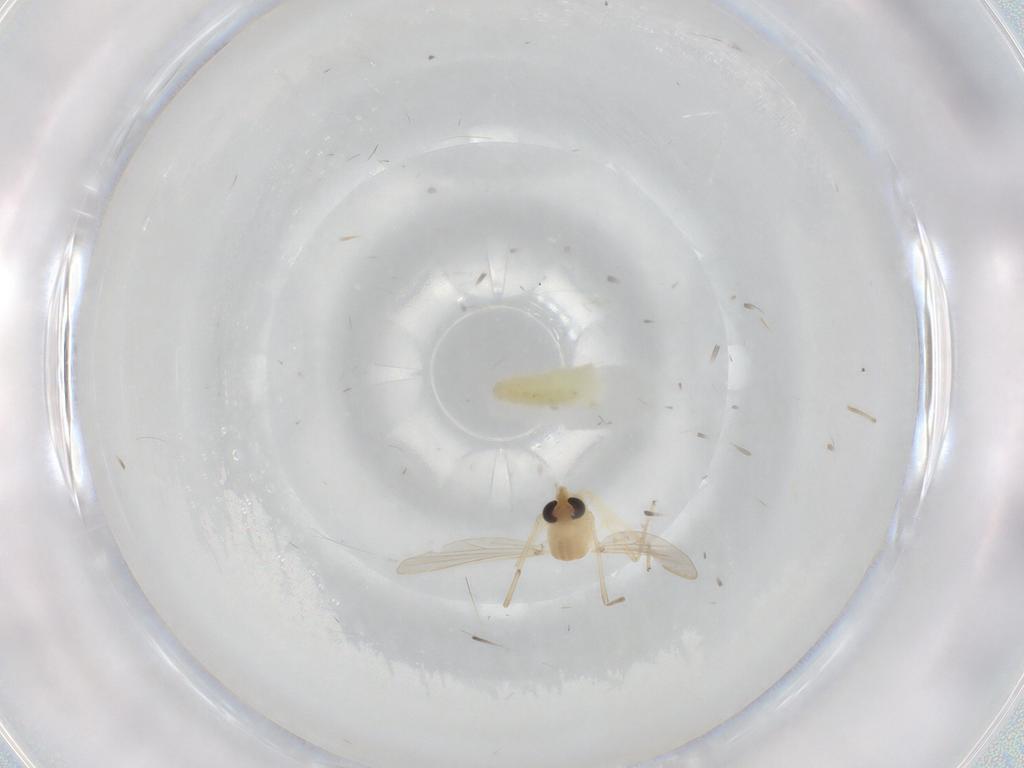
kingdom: Animalia
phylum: Arthropoda
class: Insecta
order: Diptera
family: Chironomidae
